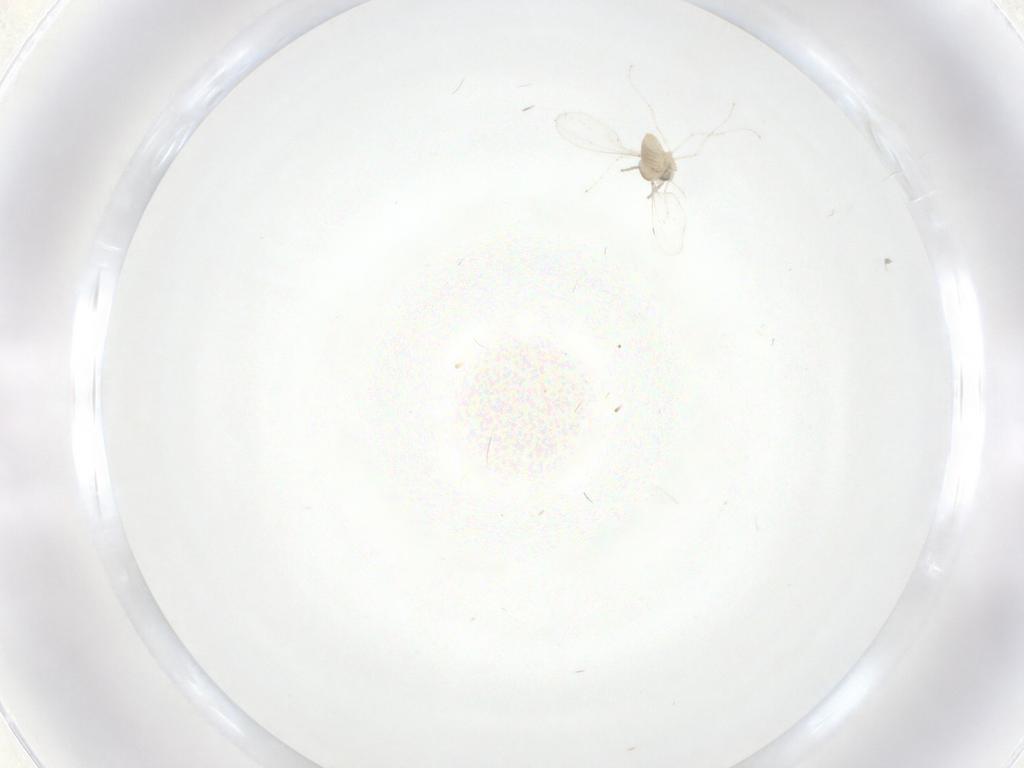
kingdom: Animalia
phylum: Arthropoda
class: Insecta
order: Diptera
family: Cecidomyiidae
